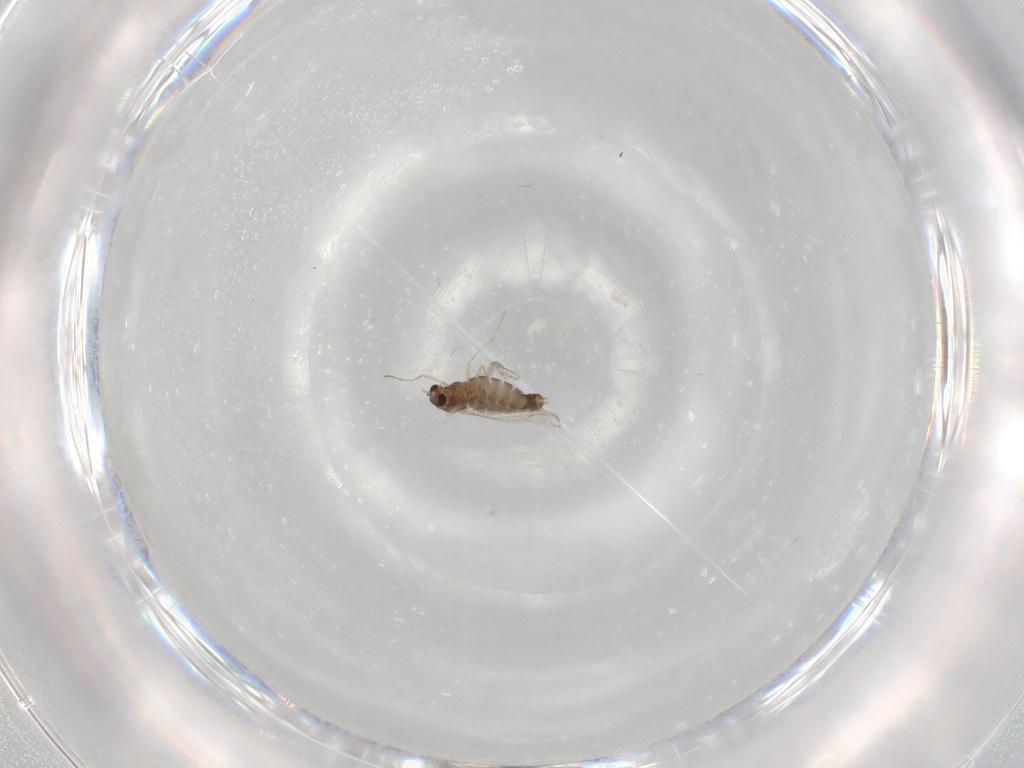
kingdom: Animalia
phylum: Arthropoda
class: Insecta
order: Diptera
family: Chironomidae
